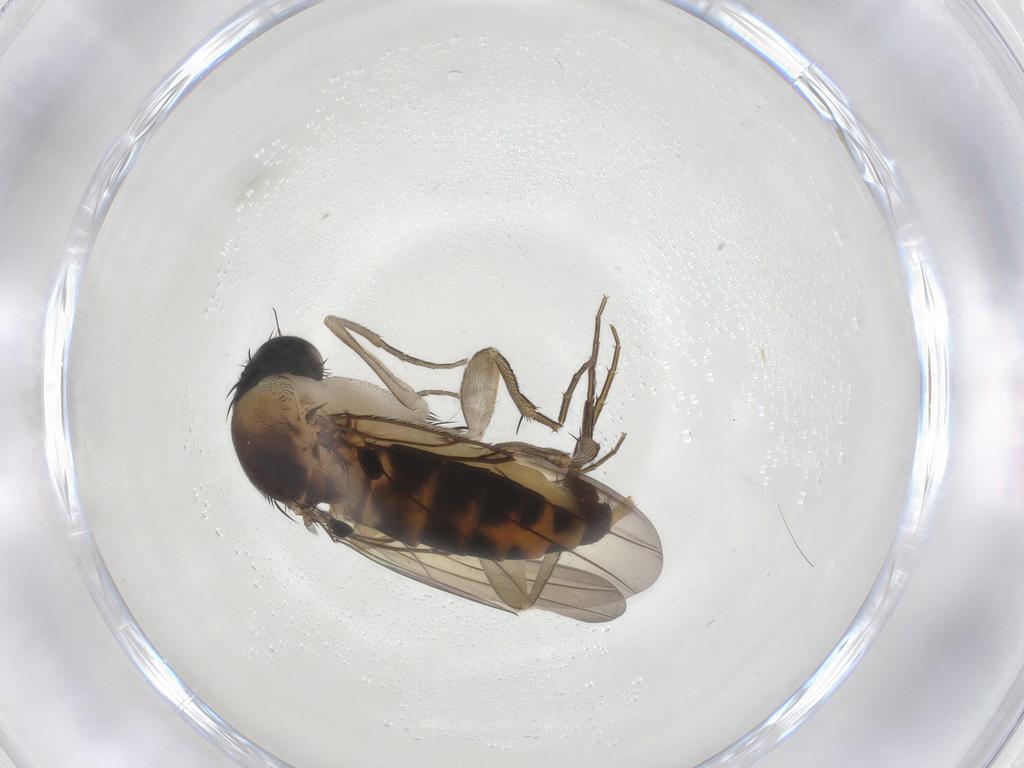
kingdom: Animalia
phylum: Arthropoda
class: Insecta
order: Diptera
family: Phoridae
